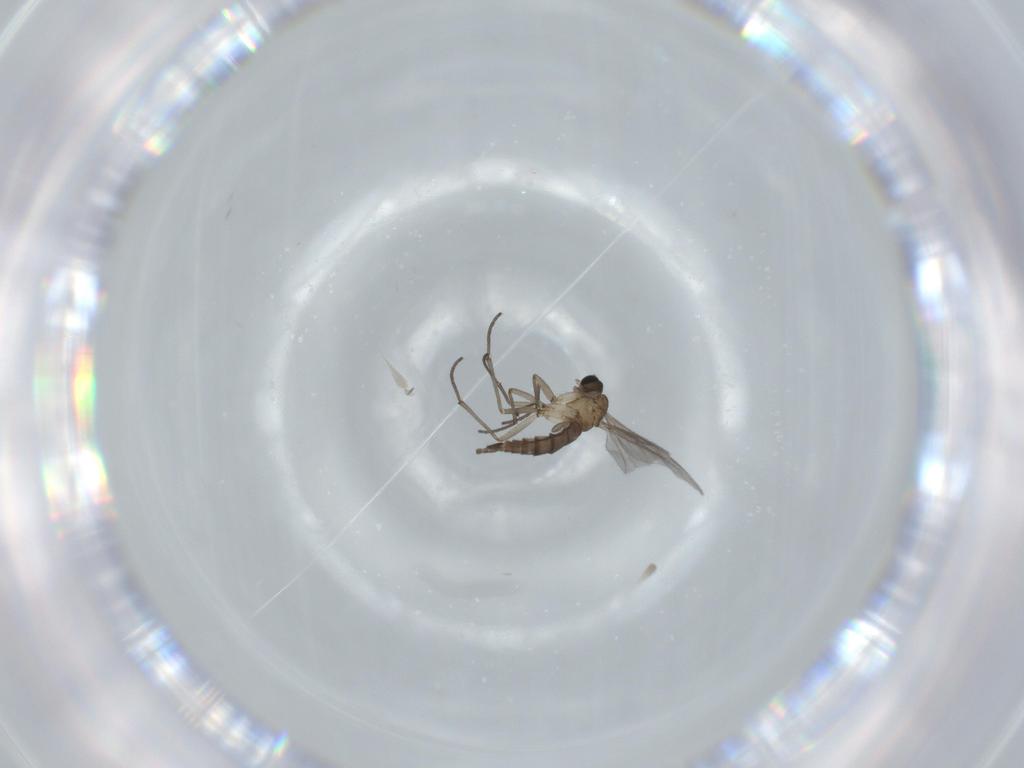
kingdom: Animalia
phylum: Arthropoda
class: Insecta
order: Diptera
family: Sciaridae
